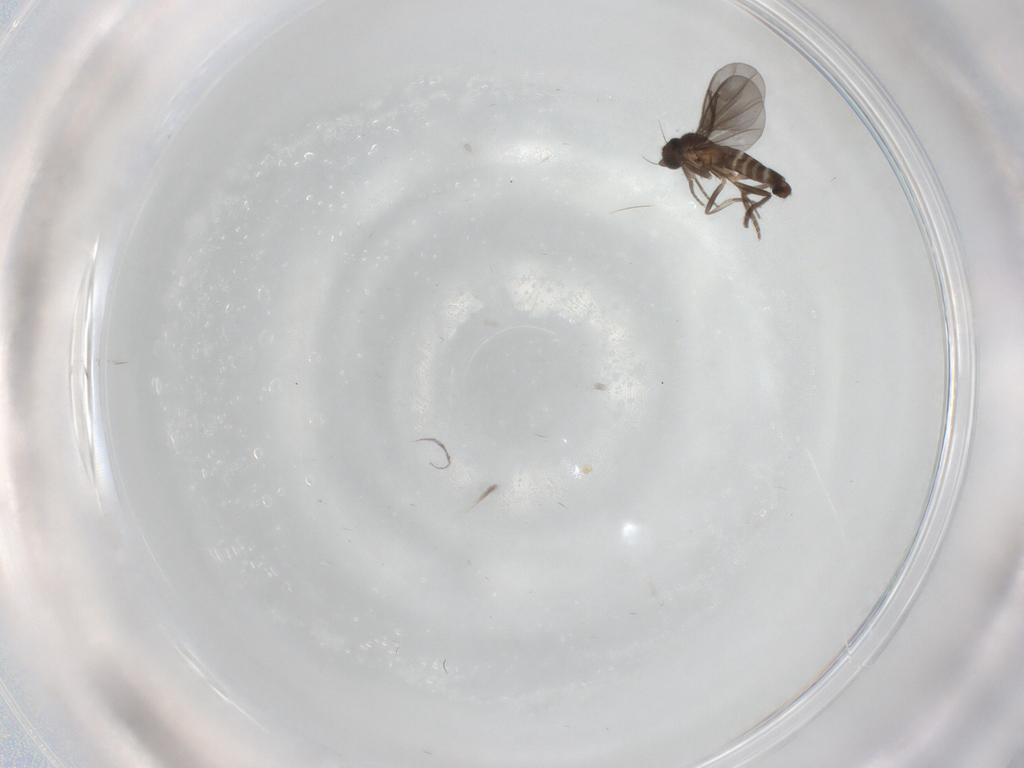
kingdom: Animalia
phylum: Arthropoda
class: Insecta
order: Diptera
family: Phoridae
